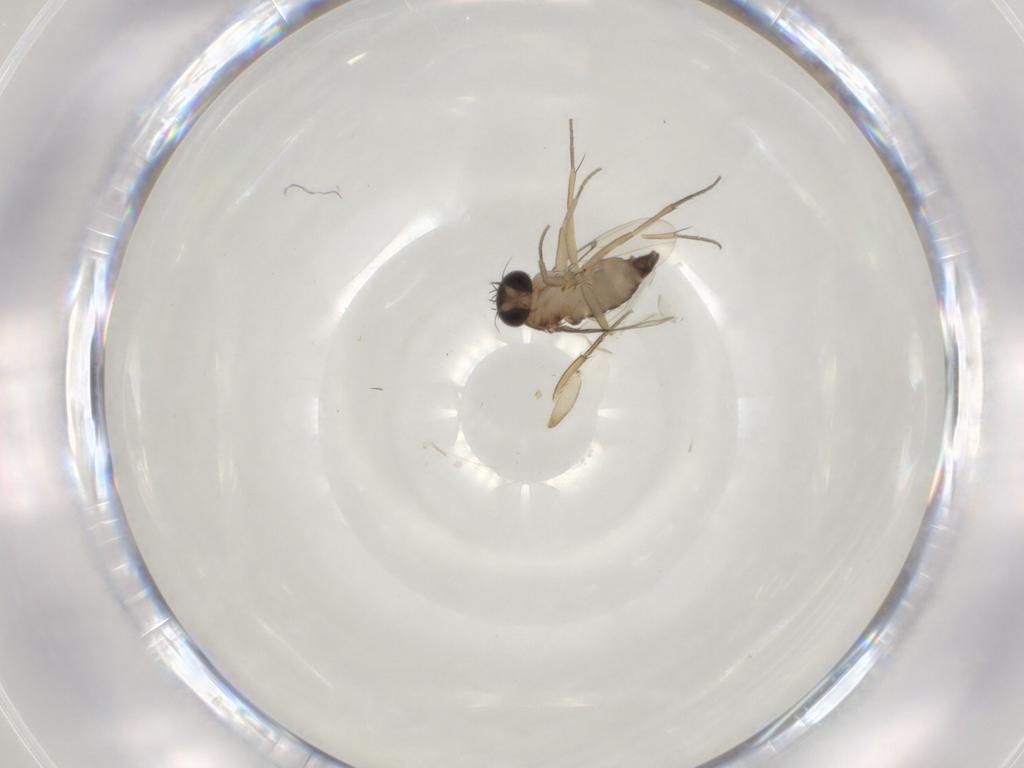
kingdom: Animalia
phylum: Arthropoda
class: Insecta
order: Diptera
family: Phoridae
